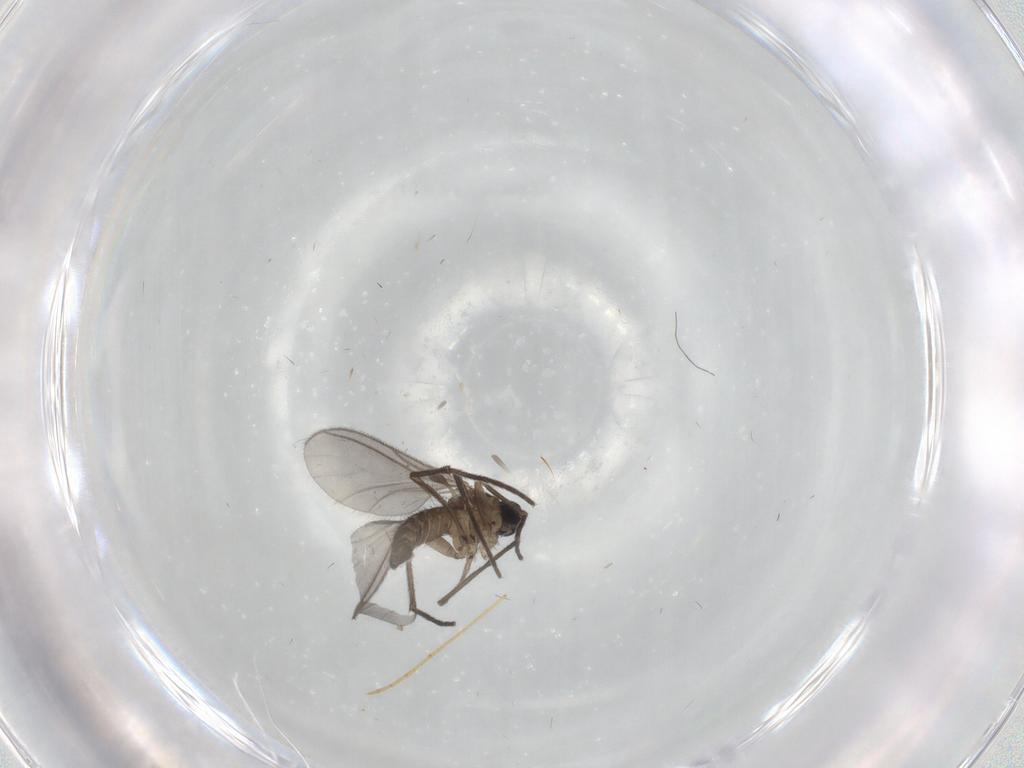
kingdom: Animalia
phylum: Arthropoda
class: Insecta
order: Diptera
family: Sciaridae
